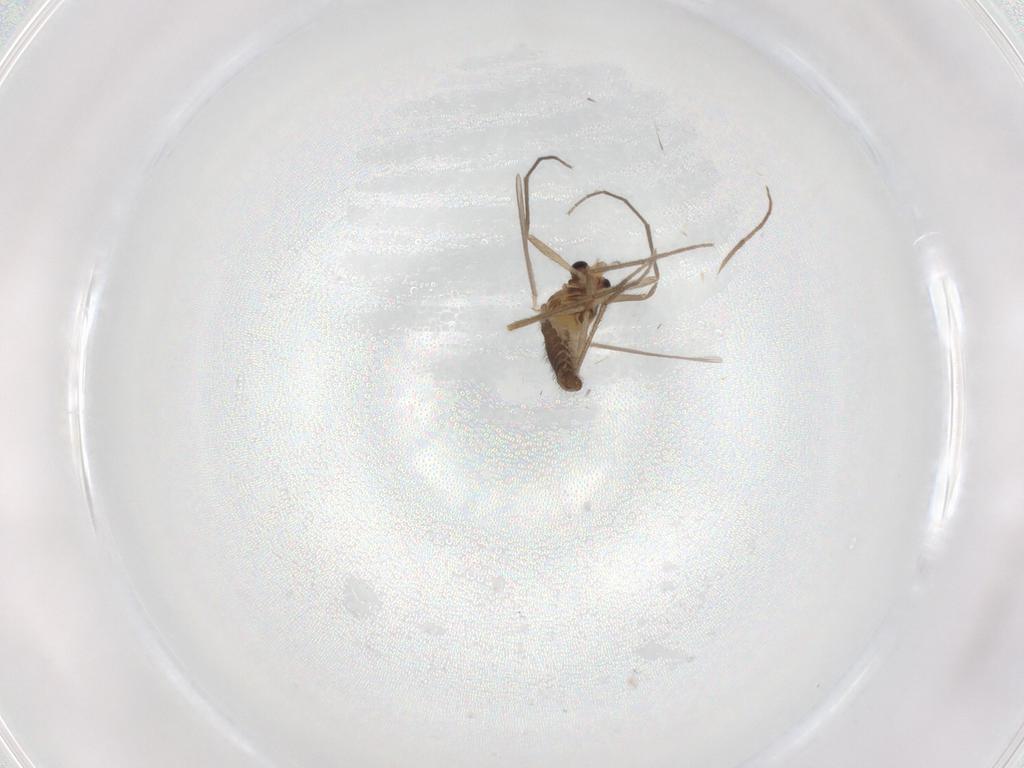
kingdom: Animalia
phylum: Arthropoda
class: Insecta
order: Diptera
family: Chironomidae
